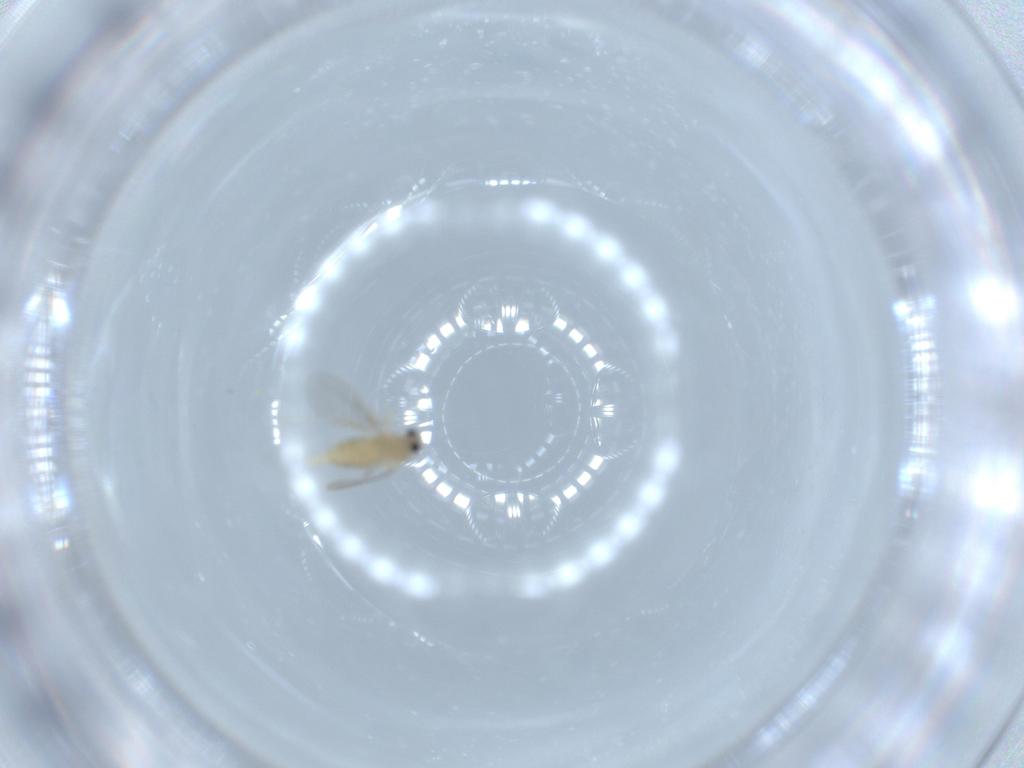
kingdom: Animalia
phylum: Arthropoda
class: Insecta
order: Diptera
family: Cecidomyiidae
